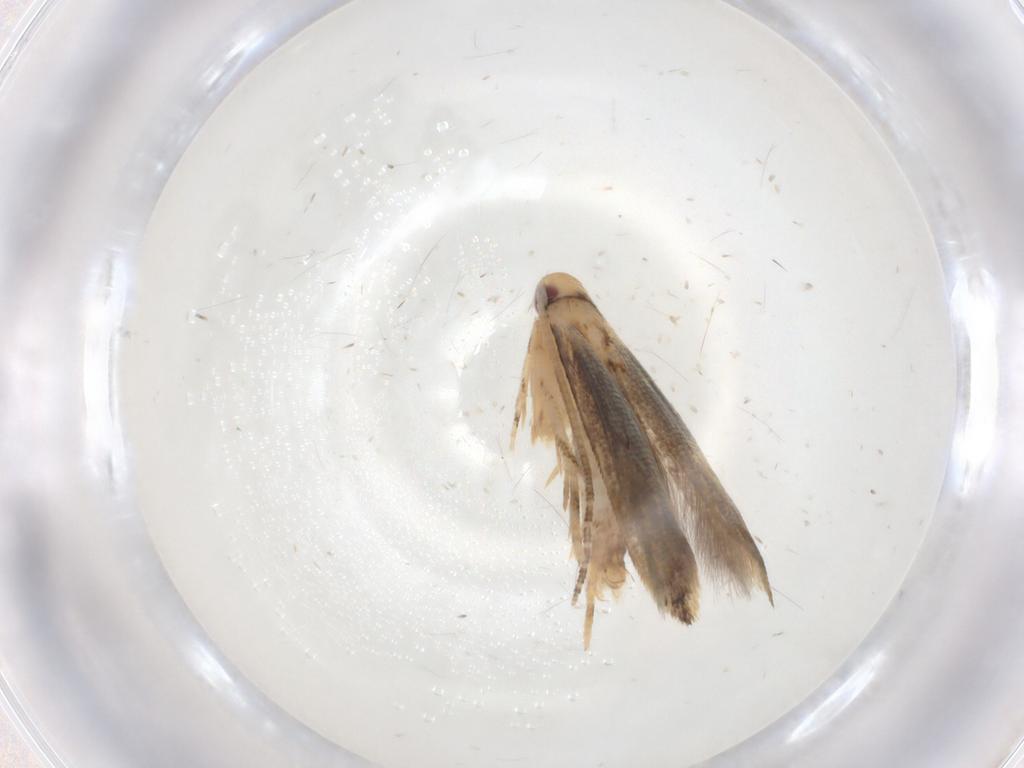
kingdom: Animalia
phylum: Arthropoda
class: Insecta
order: Lepidoptera
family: Momphidae
